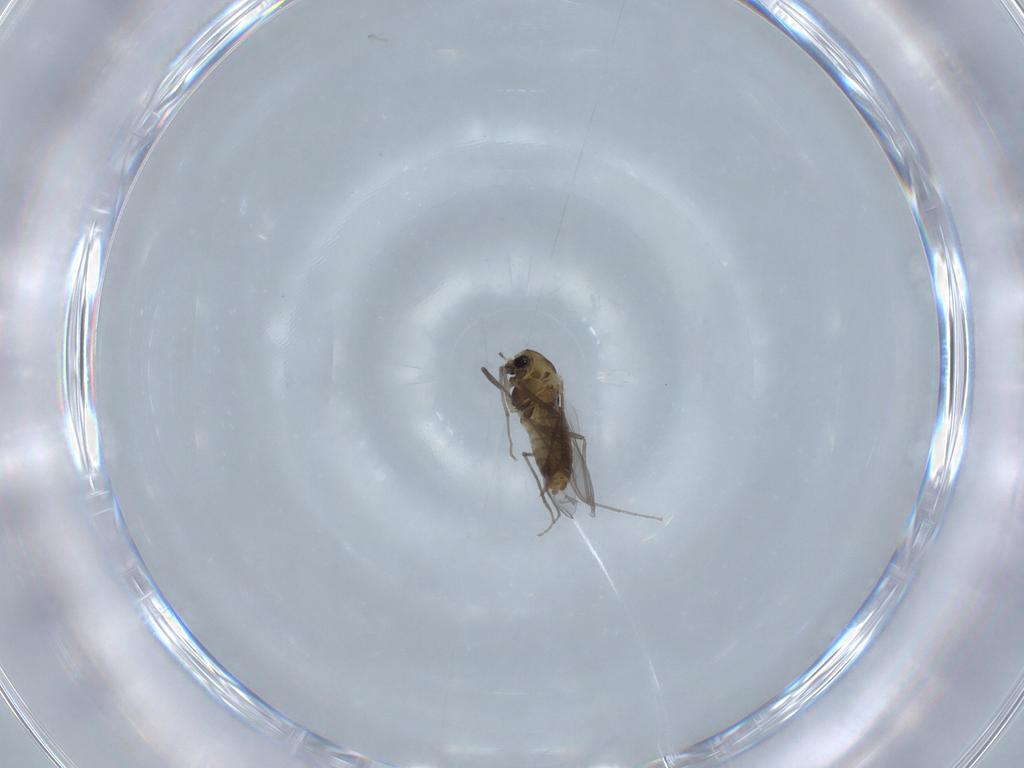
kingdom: Animalia
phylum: Arthropoda
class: Insecta
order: Diptera
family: Chironomidae
